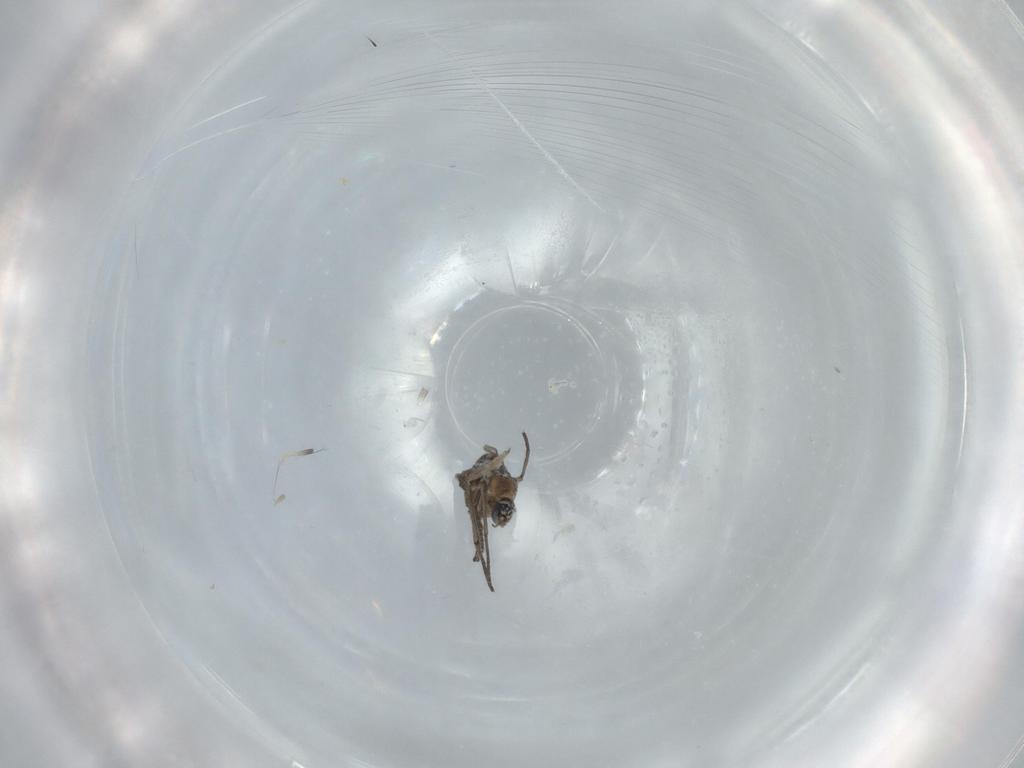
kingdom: Animalia
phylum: Arthropoda
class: Insecta
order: Diptera
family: Sciaridae
